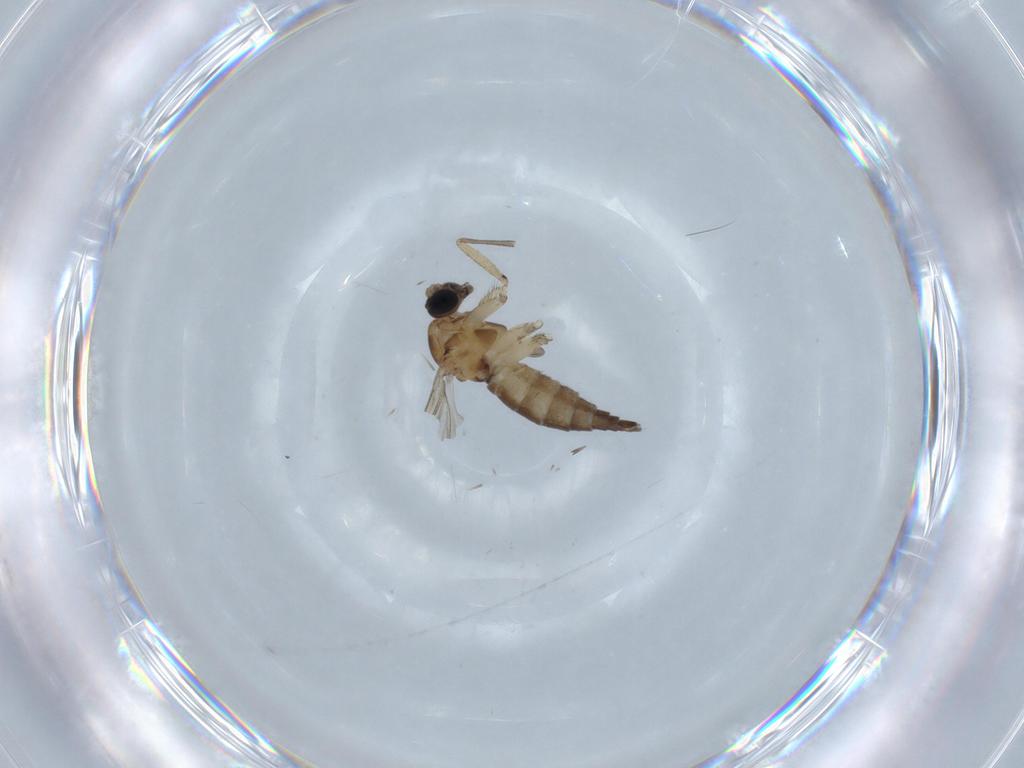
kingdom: Animalia
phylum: Arthropoda
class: Insecta
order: Diptera
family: Sciaridae
